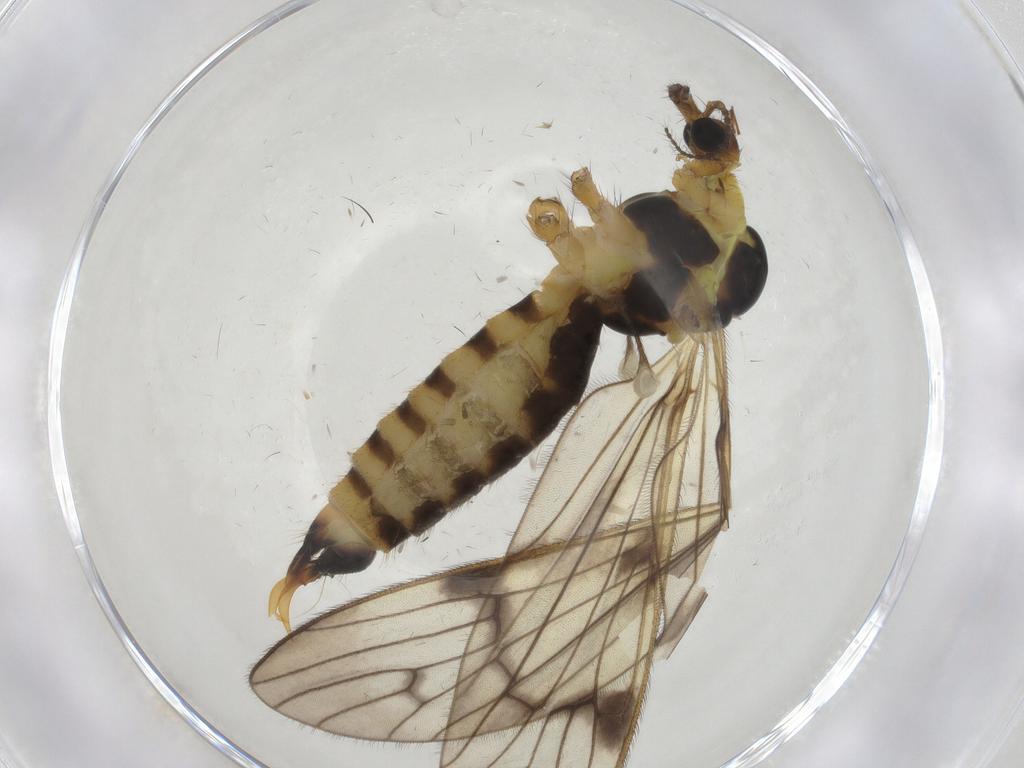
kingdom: Animalia
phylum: Arthropoda
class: Insecta
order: Diptera
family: Limoniidae
